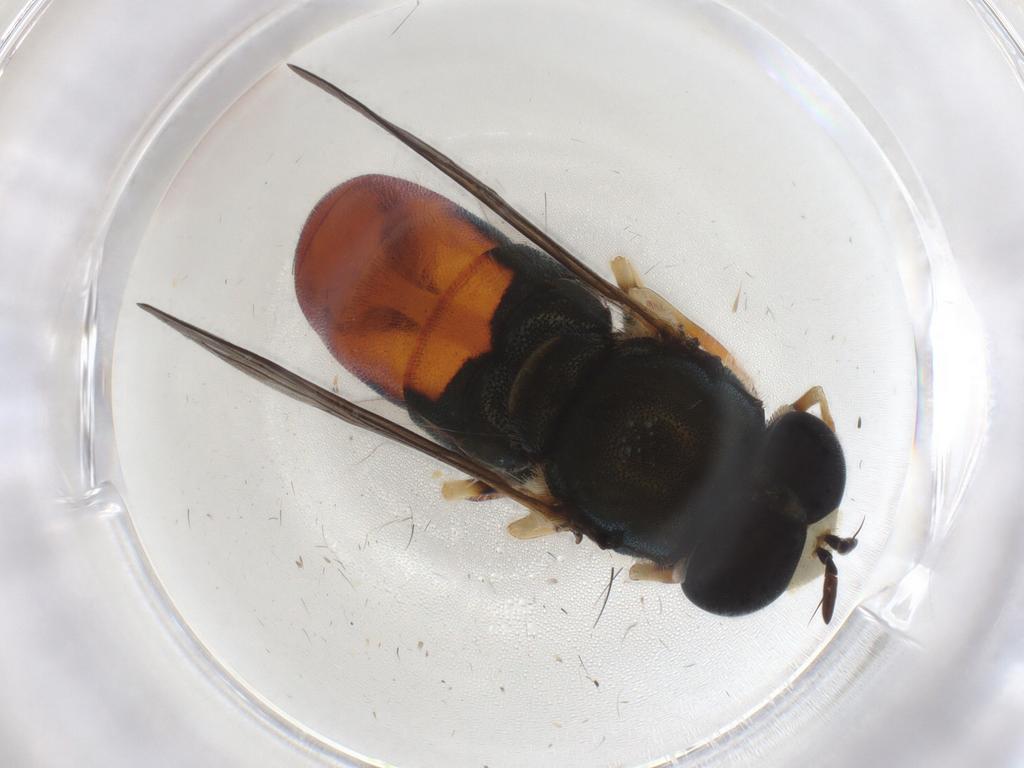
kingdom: Animalia
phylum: Arthropoda
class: Insecta
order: Diptera
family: Syrphidae
